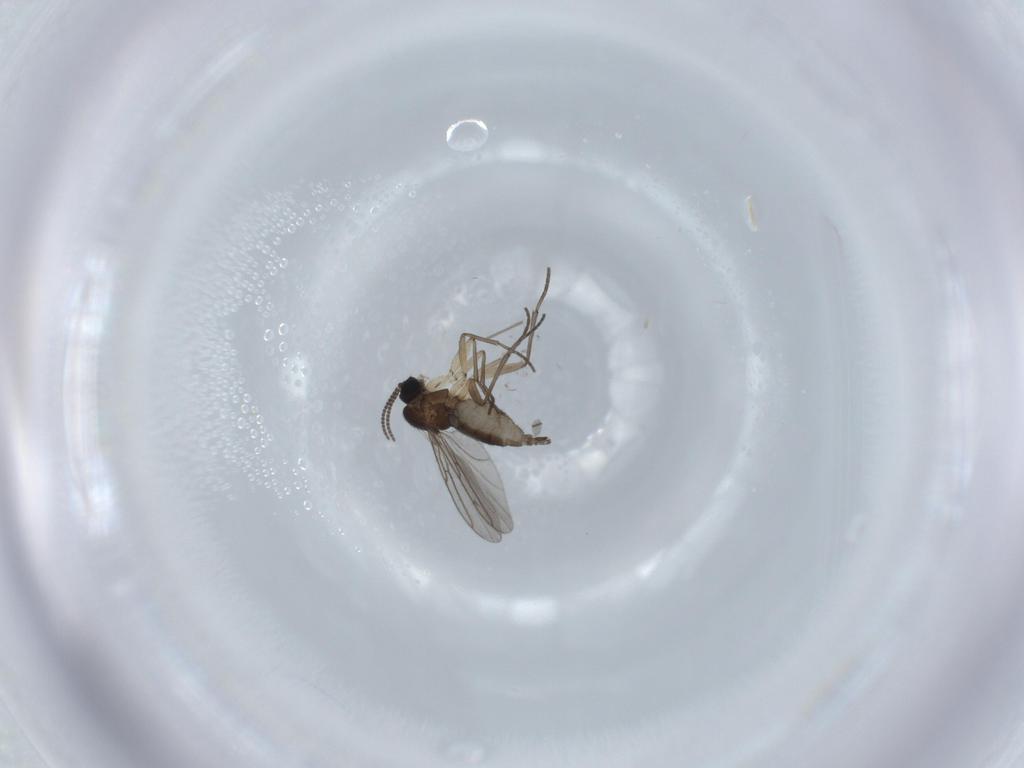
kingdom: Animalia
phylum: Arthropoda
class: Insecta
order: Diptera
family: Sciaridae
